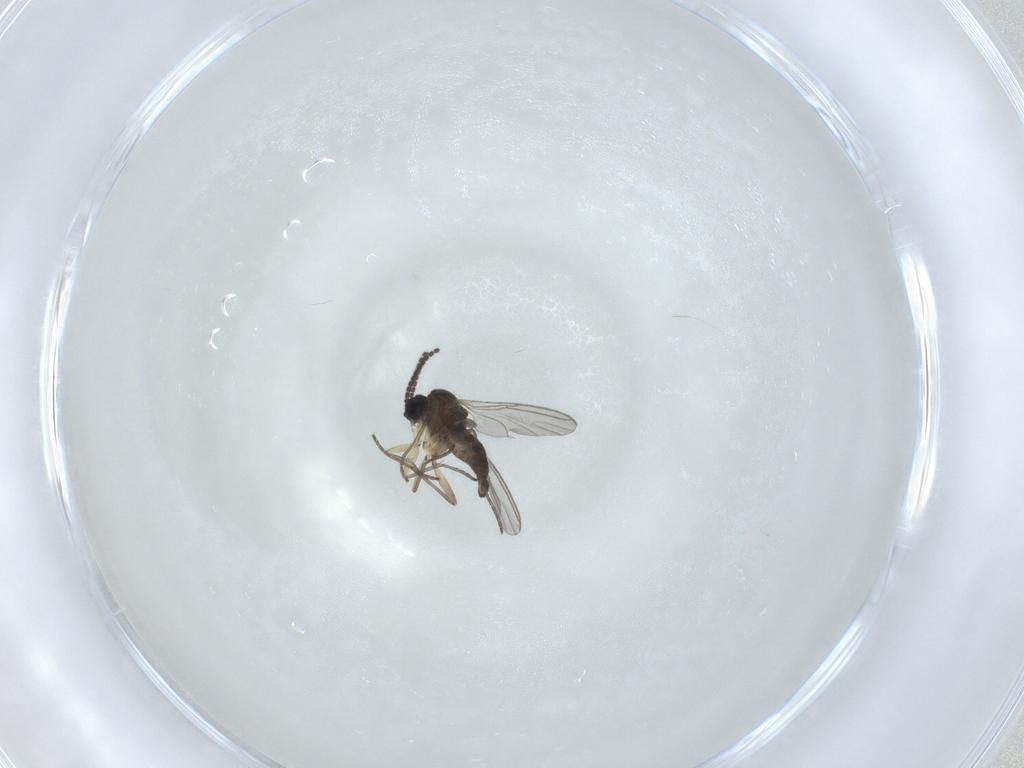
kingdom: Animalia
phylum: Arthropoda
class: Insecta
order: Diptera
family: Sciaridae
